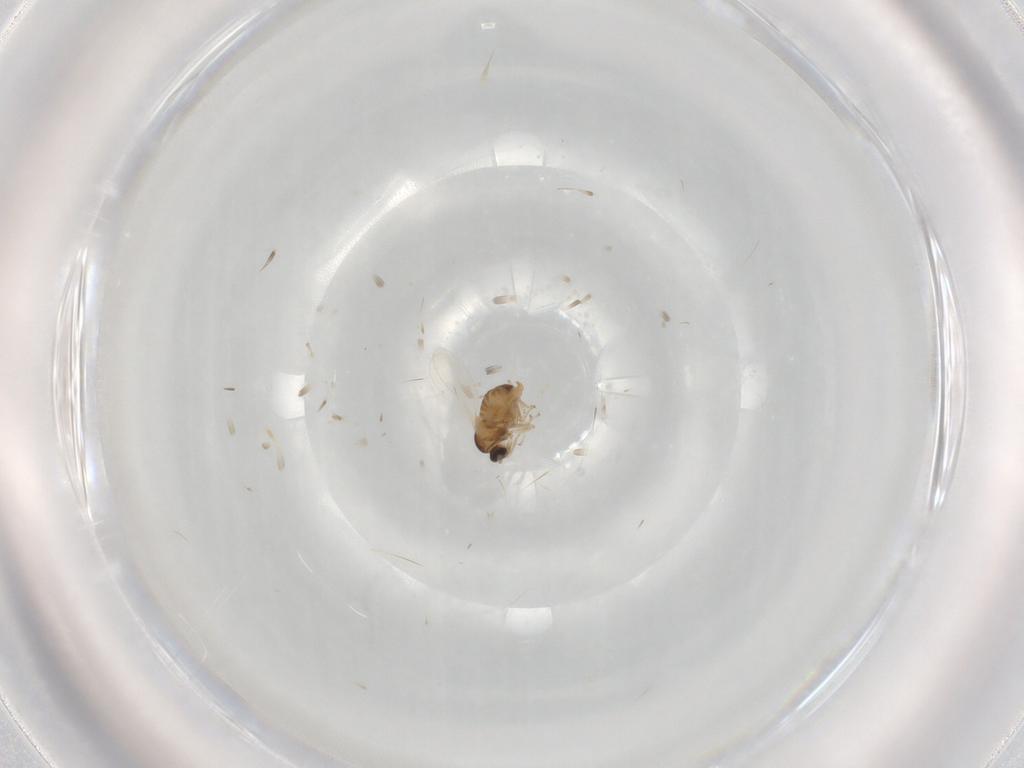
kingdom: Animalia
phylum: Arthropoda
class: Insecta
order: Diptera
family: Cecidomyiidae
